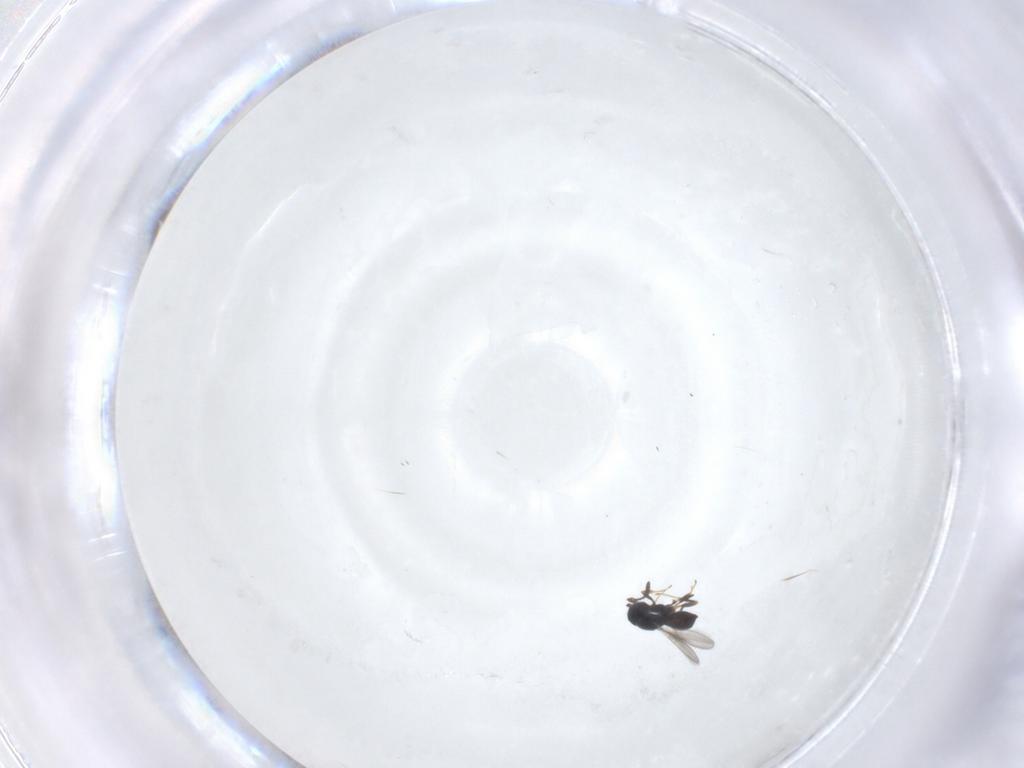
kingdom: Animalia
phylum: Arthropoda
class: Insecta
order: Hymenoptera
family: Scelionidae
